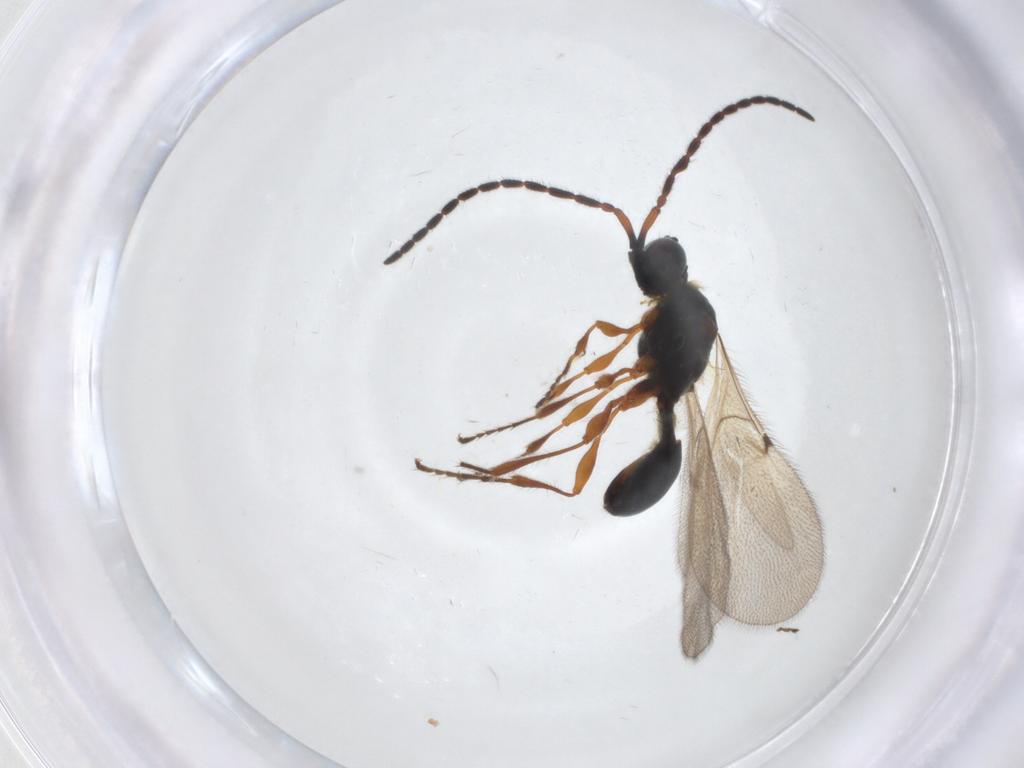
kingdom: Animalia
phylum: Arthropoda
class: Insecta
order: Hymenoptera
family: Diapriidae
